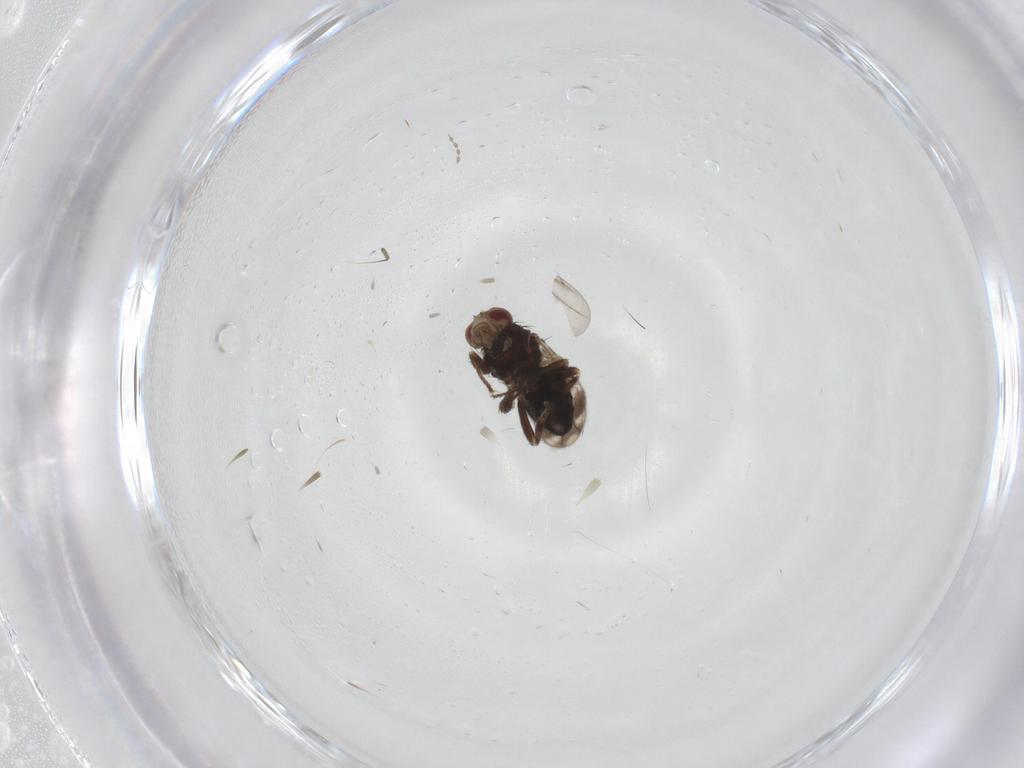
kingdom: Animalia
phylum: Arthropoda
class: Insecta
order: Diptera
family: Sphaeroceridae
